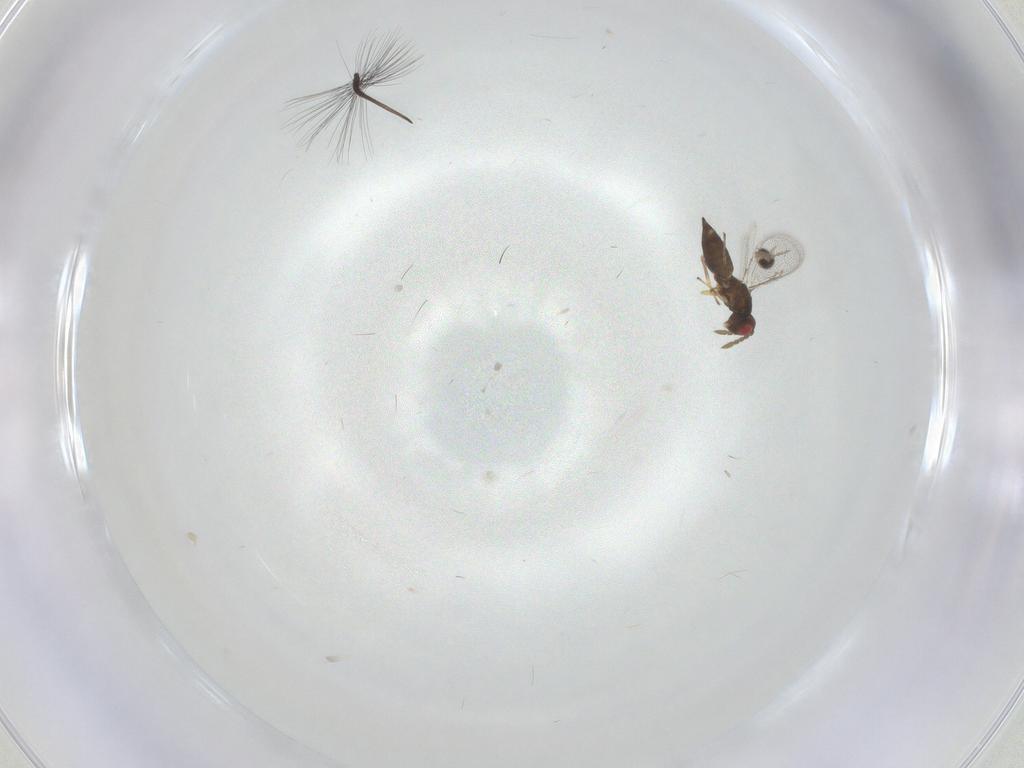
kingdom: Animalia
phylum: Arthropoda
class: Insecta
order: Hymenoptera
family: Eulophidae
